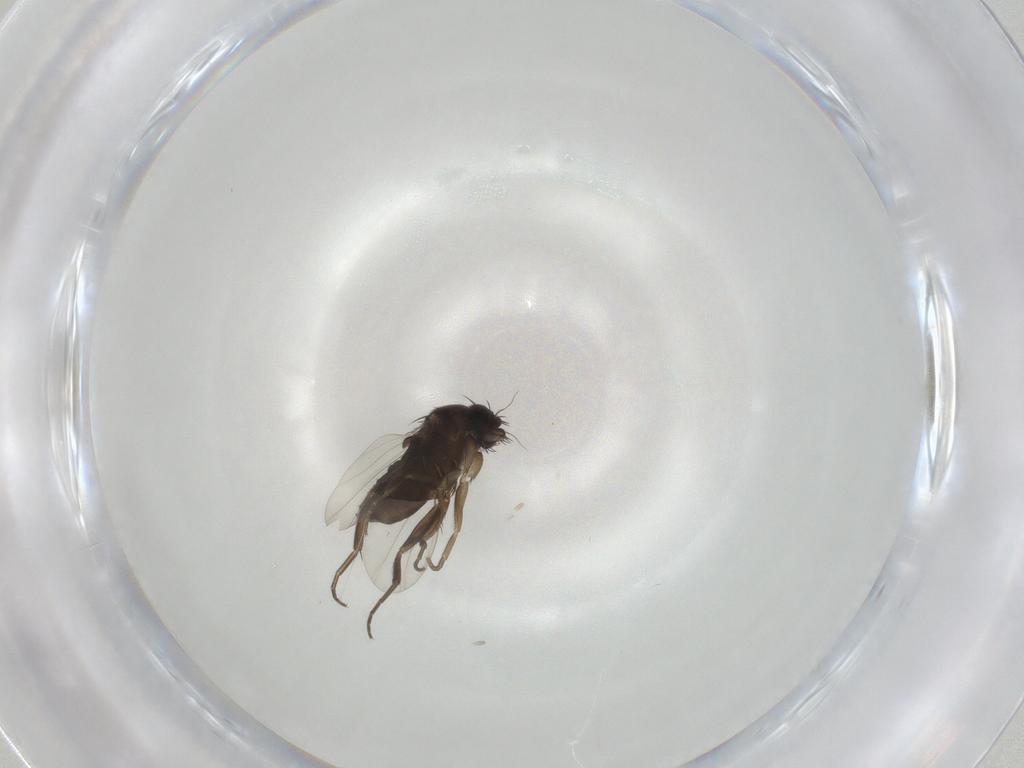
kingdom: Animalia
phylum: Arthropoda
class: Insecta
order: Diptera
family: Phoridae
